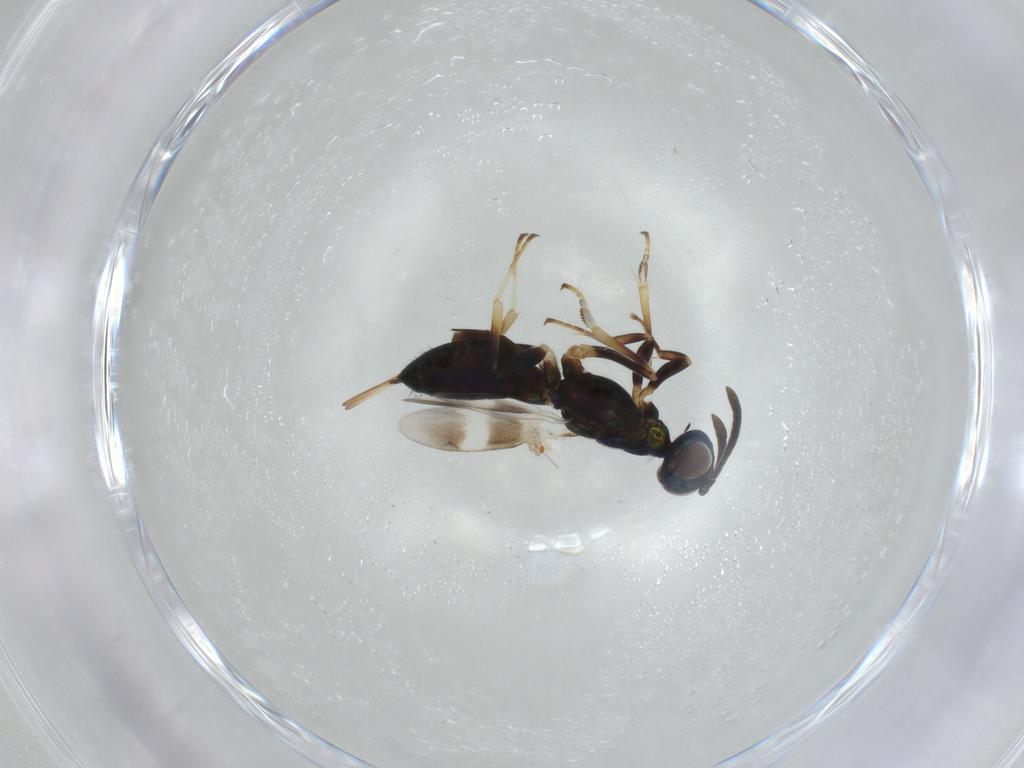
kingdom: Animalia
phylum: Arthropoda
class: Insecta
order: Hymenoptera
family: Eupelmidae
